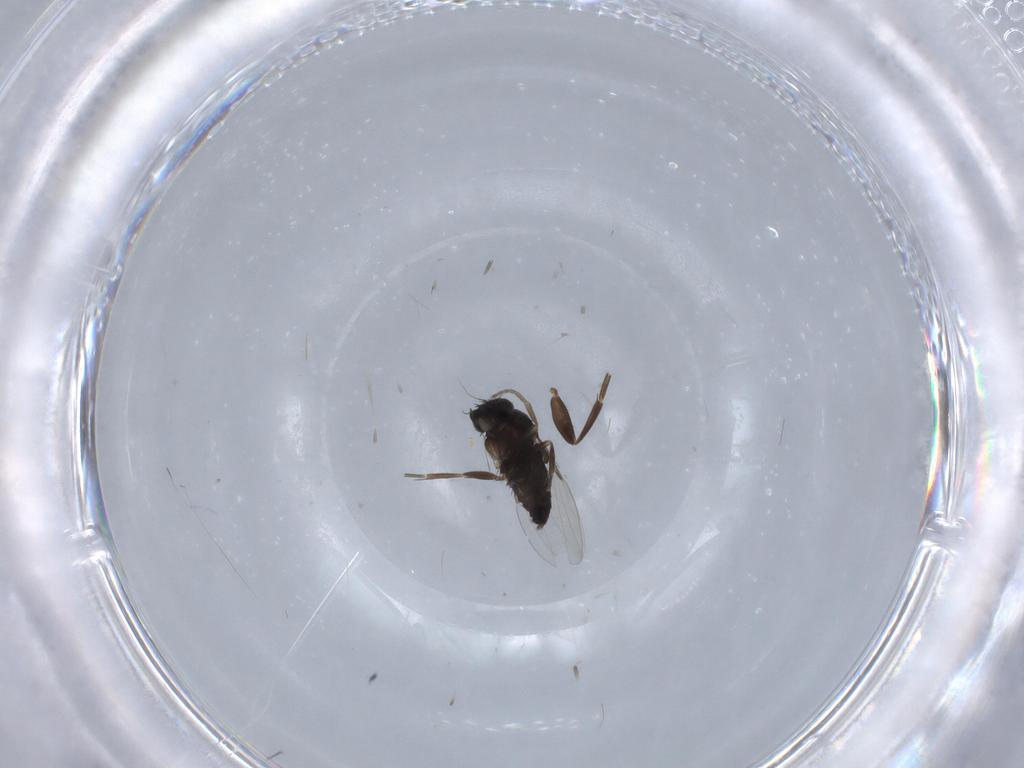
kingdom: Animalia
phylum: Arthropoda
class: Insecta
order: Diptera
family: Phoridae
